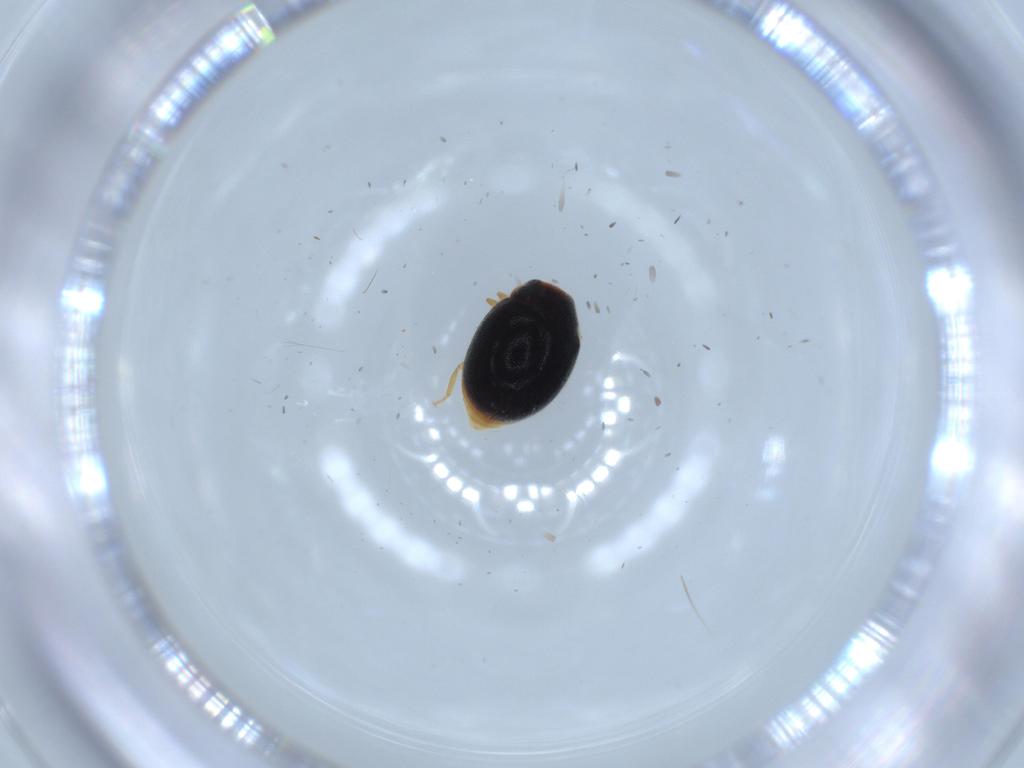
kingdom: Animalia
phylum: Arthropoda
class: Insecta
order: Coleoptera
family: Coccinellidae
